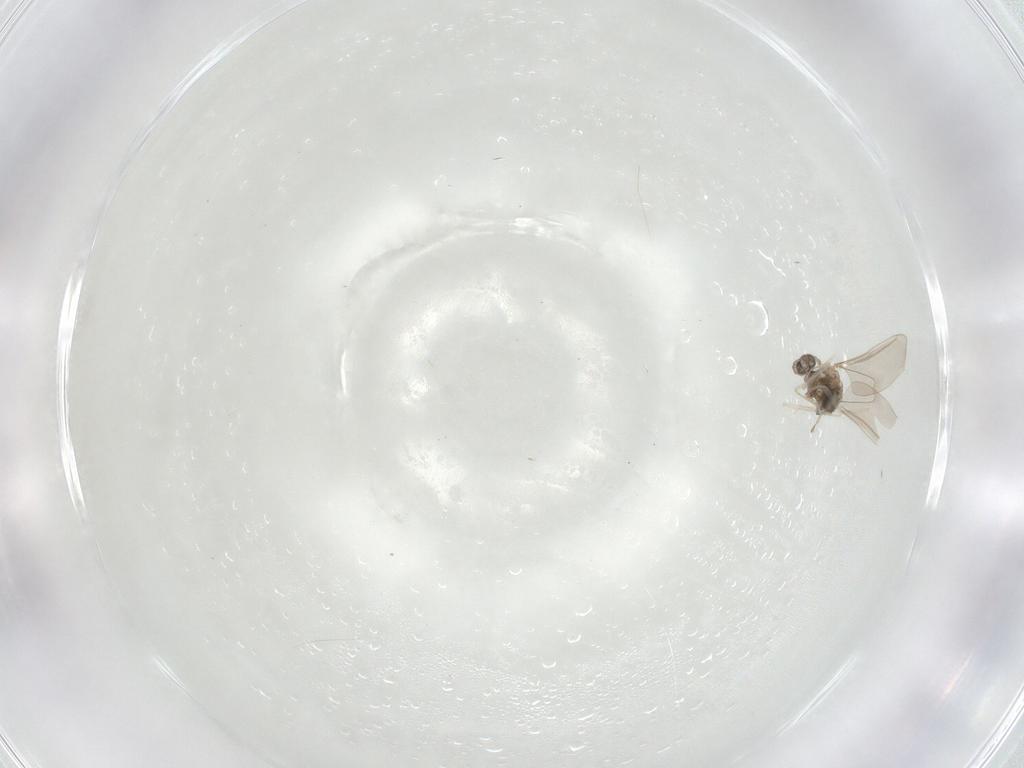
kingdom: Animalia
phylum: Arthropoda
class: Insecta
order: Diptera
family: Cecidomyiidae
